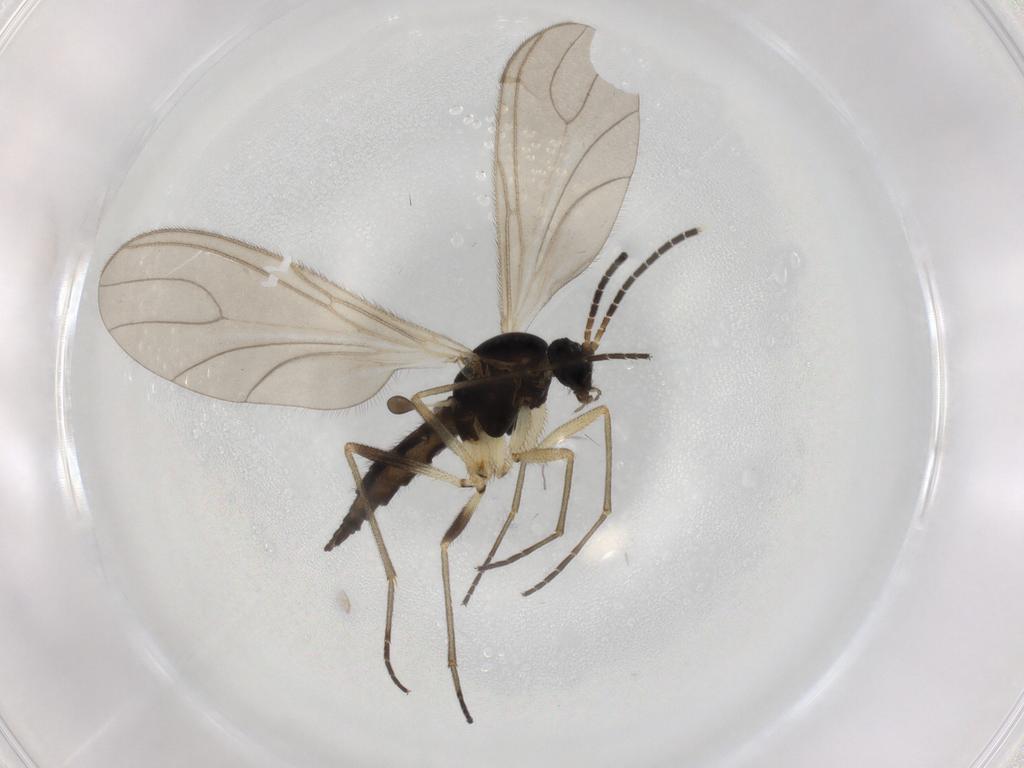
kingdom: Animalia
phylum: Arthropoda
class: Insecta
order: Diptera
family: Sciaridae
